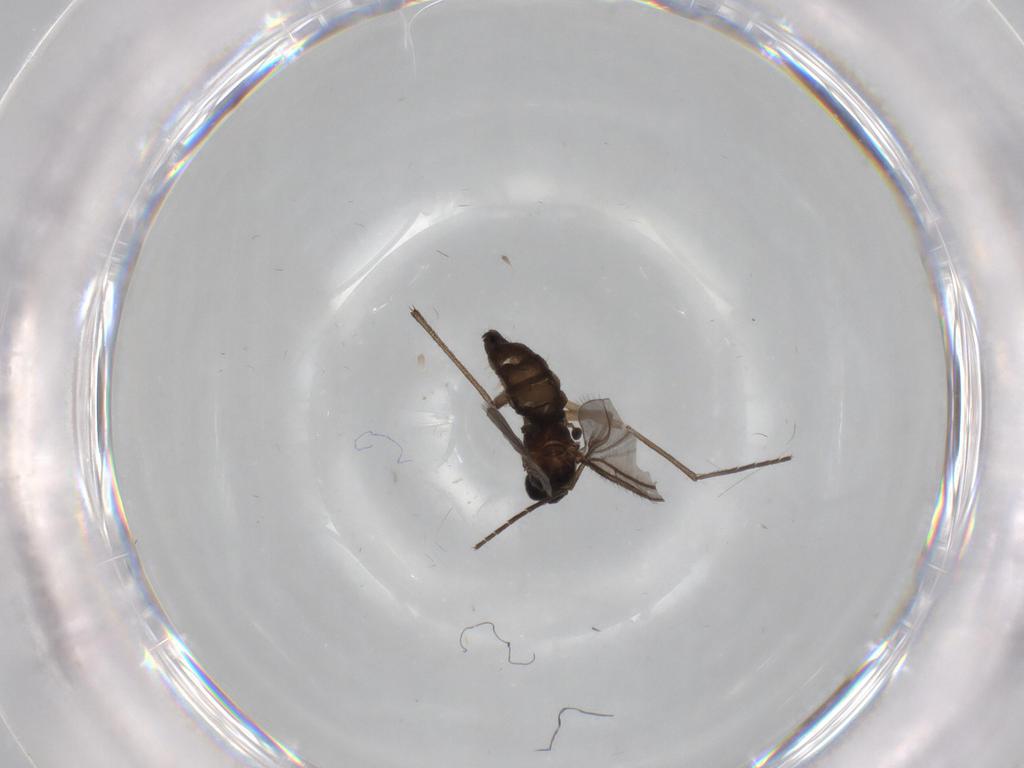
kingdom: Animalia
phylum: Arthropoda
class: Insecta
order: Diptera
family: Sciaridae
